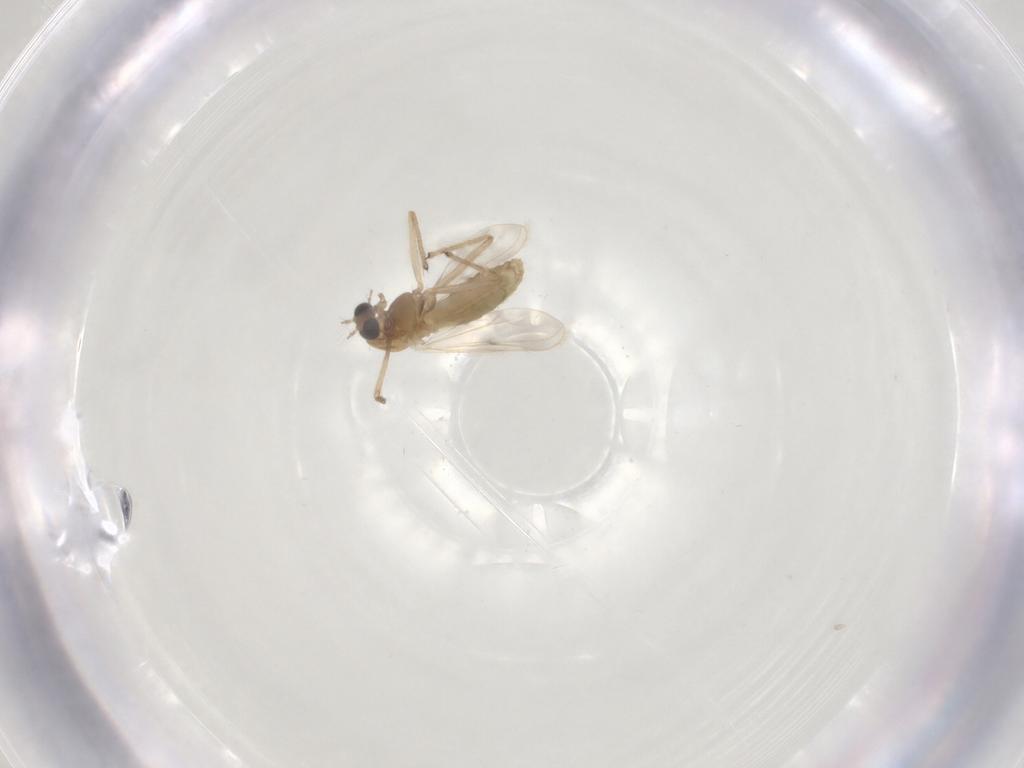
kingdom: Animalia
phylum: Arthropoda
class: Insecta
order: Diptera
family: Chironomidae
